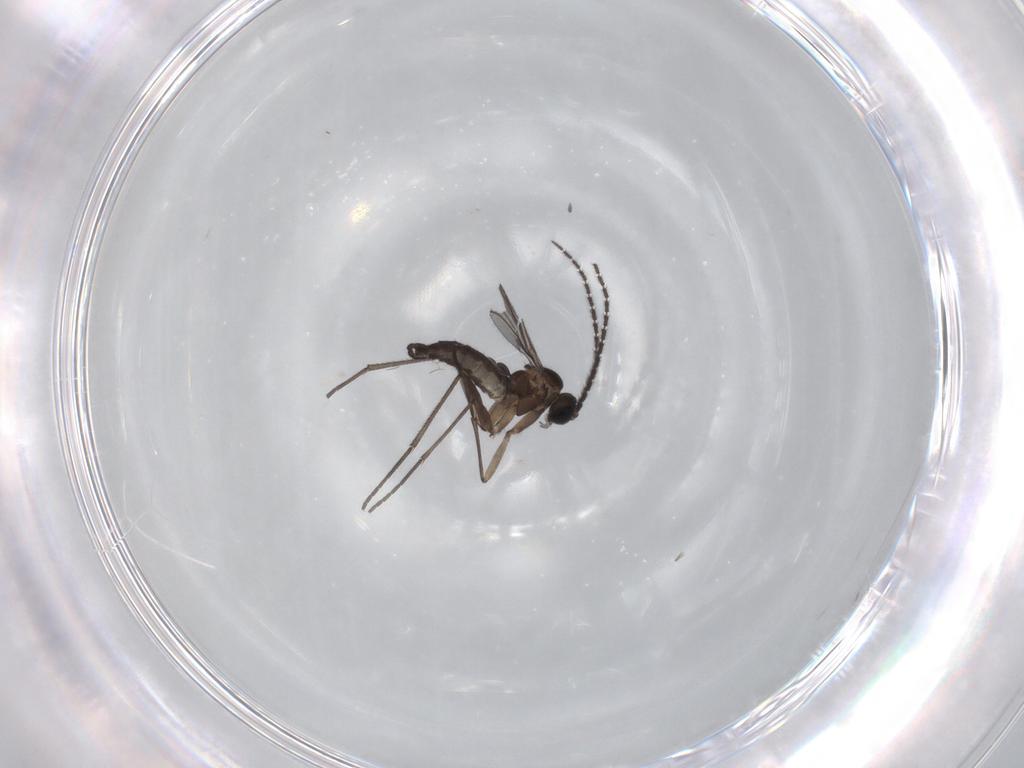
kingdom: Animalia
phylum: Arthropoda
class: Insecta
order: Diptera
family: Sciaridae
